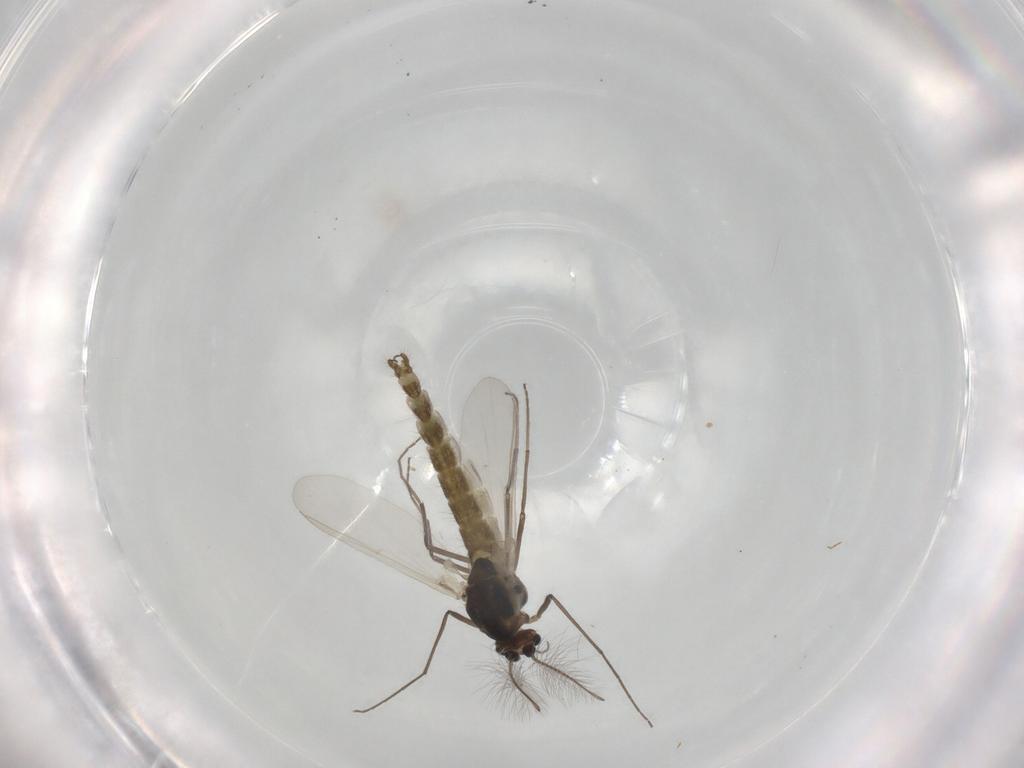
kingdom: Animalia
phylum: Arthropoda
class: Insecta
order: Diptera
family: Chironomidae
